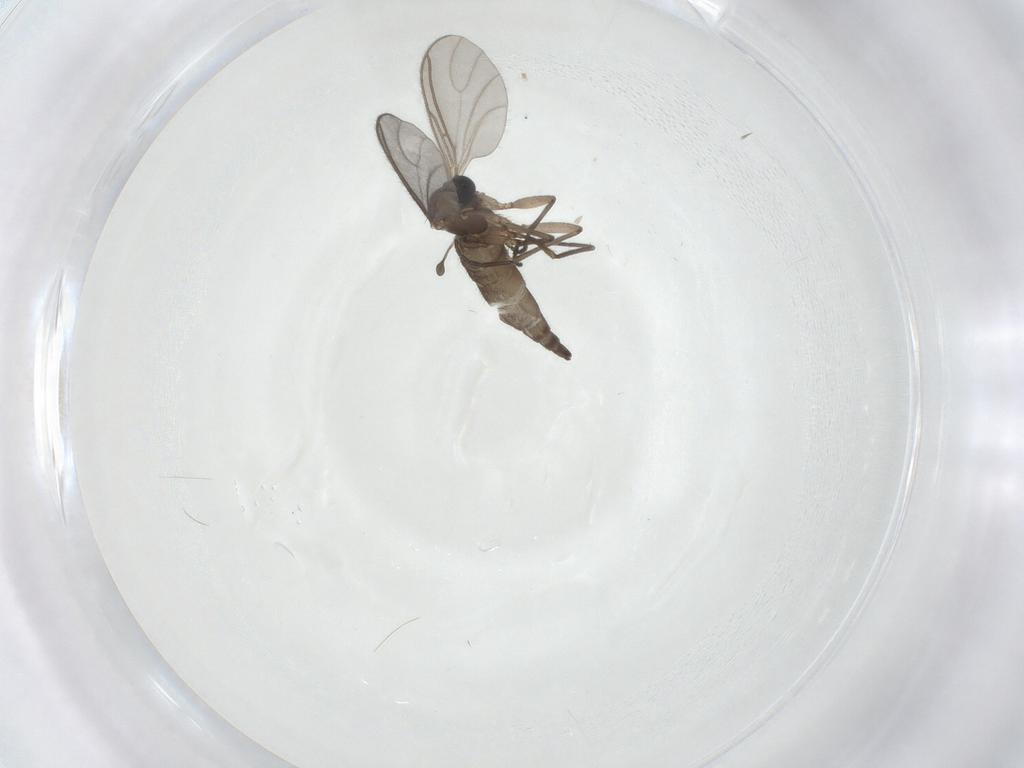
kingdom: Animalia
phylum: Arthropoda
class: Insecta
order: Diptera
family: Sciaridae
